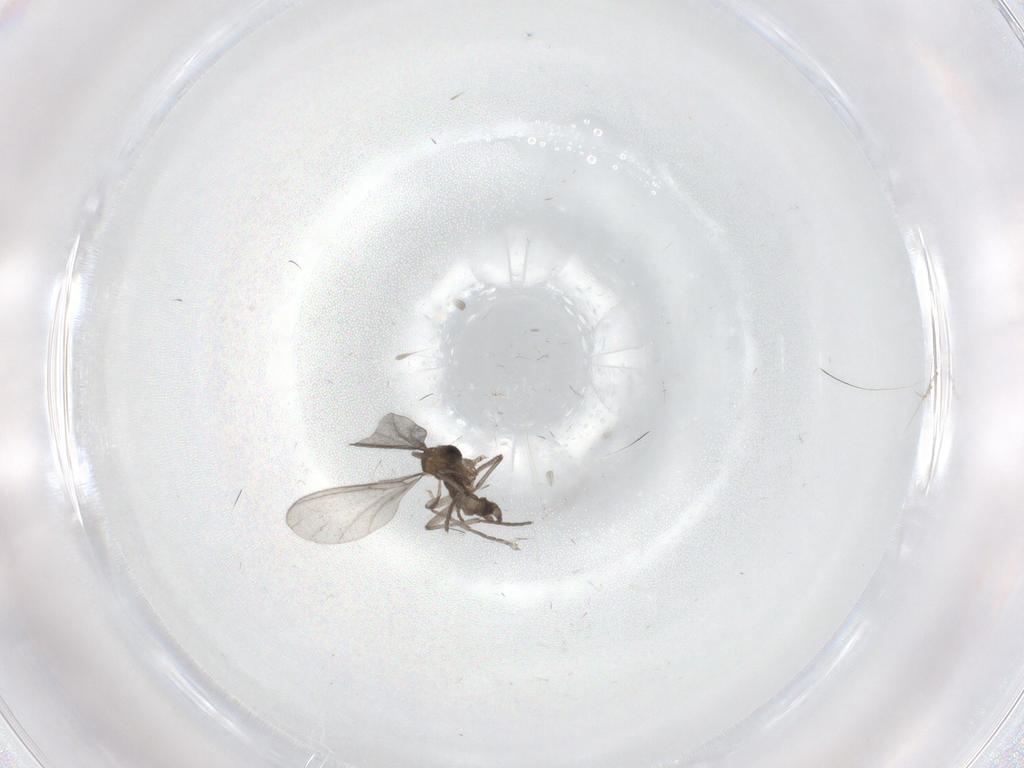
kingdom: Animalia
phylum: Arthropoda
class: Insecta
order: Diptera
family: Sciaridae
